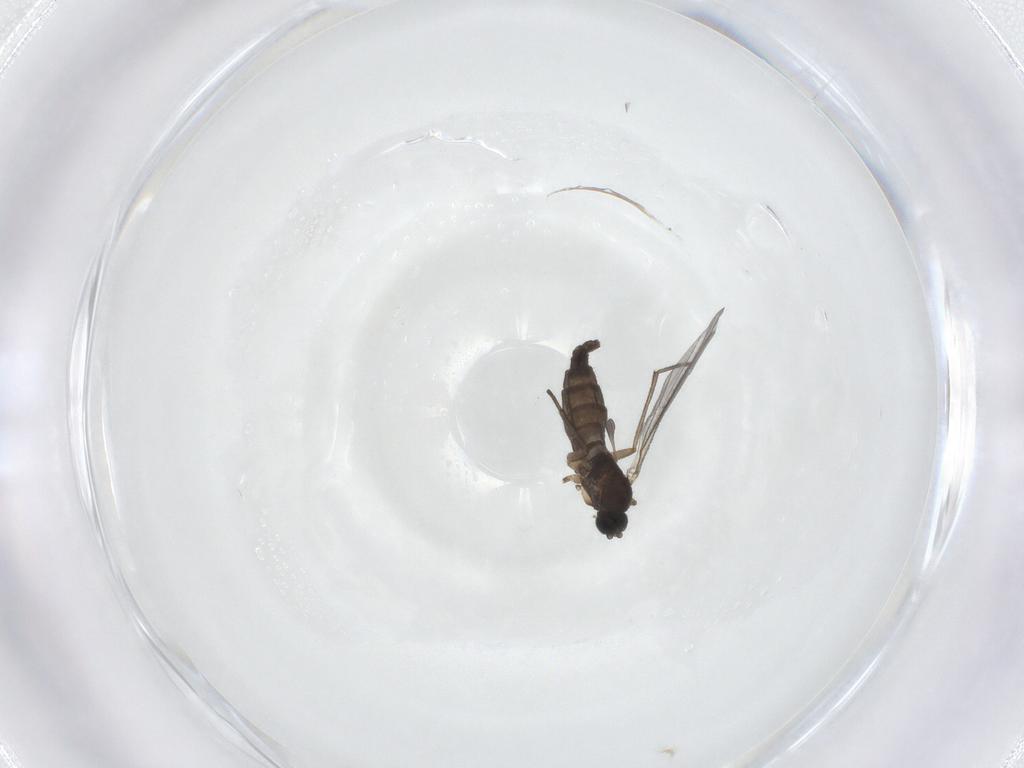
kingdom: Animalia
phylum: Arthropoda
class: Insecta
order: Diptera
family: Sciaridae
